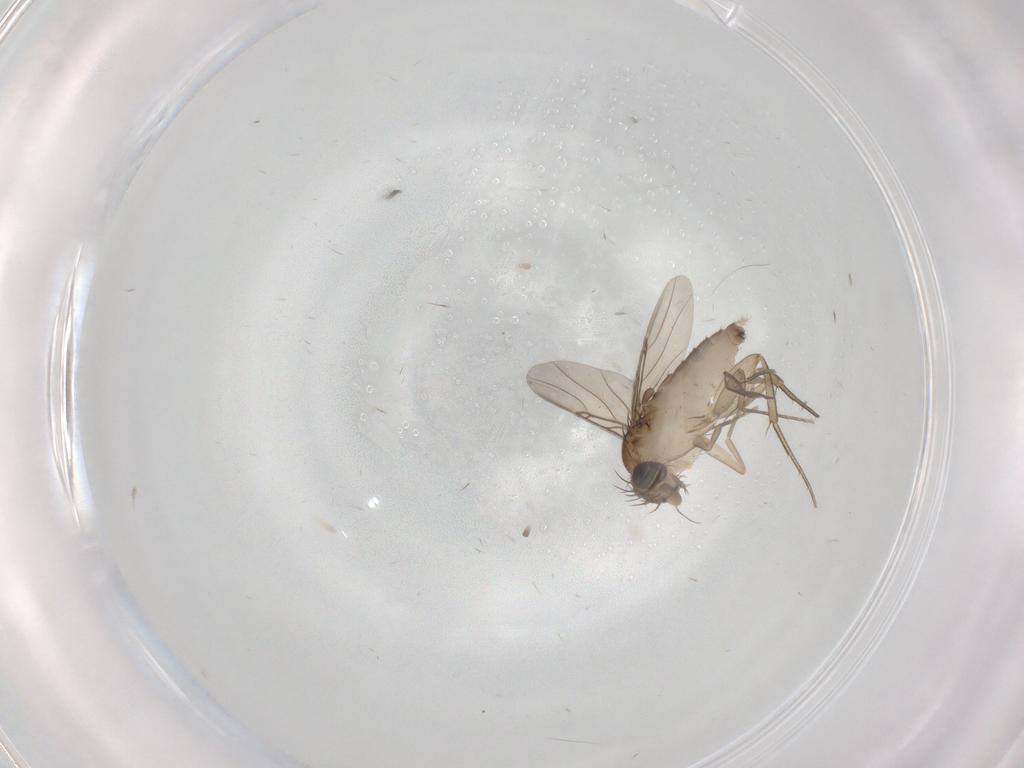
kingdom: Animalia
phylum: Arthropoda
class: Insecta
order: Diptera
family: Phoridae
